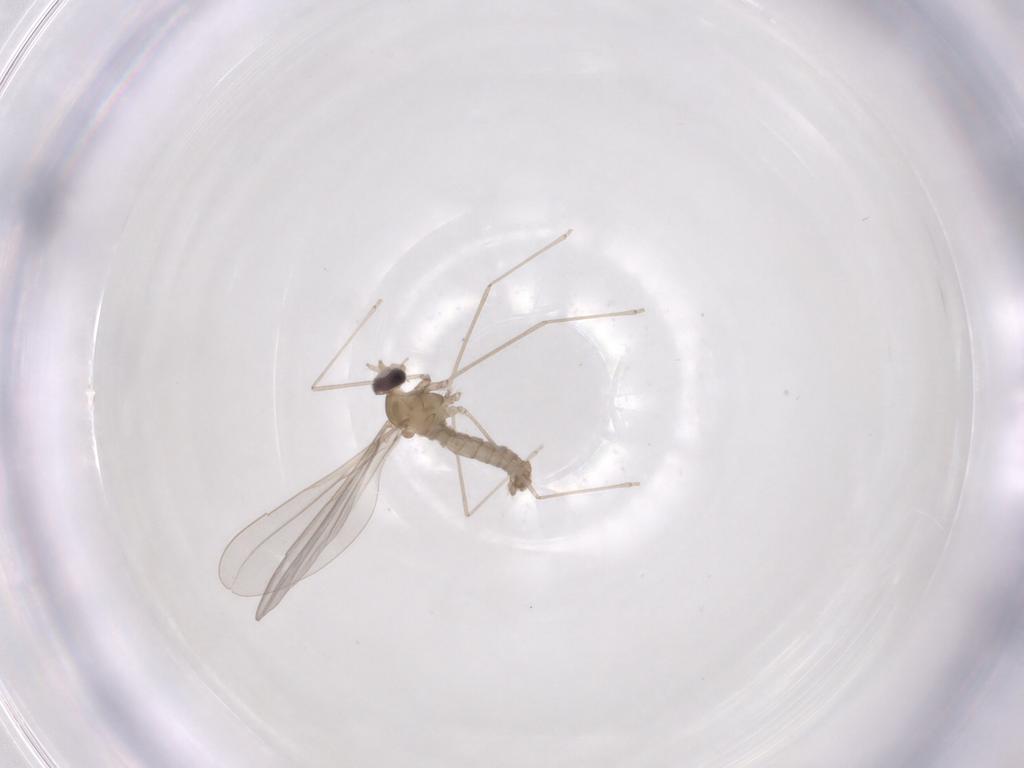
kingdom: Animalia
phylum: Arthropoda
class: Insecta
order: Diptera
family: Cecidomyiidae
